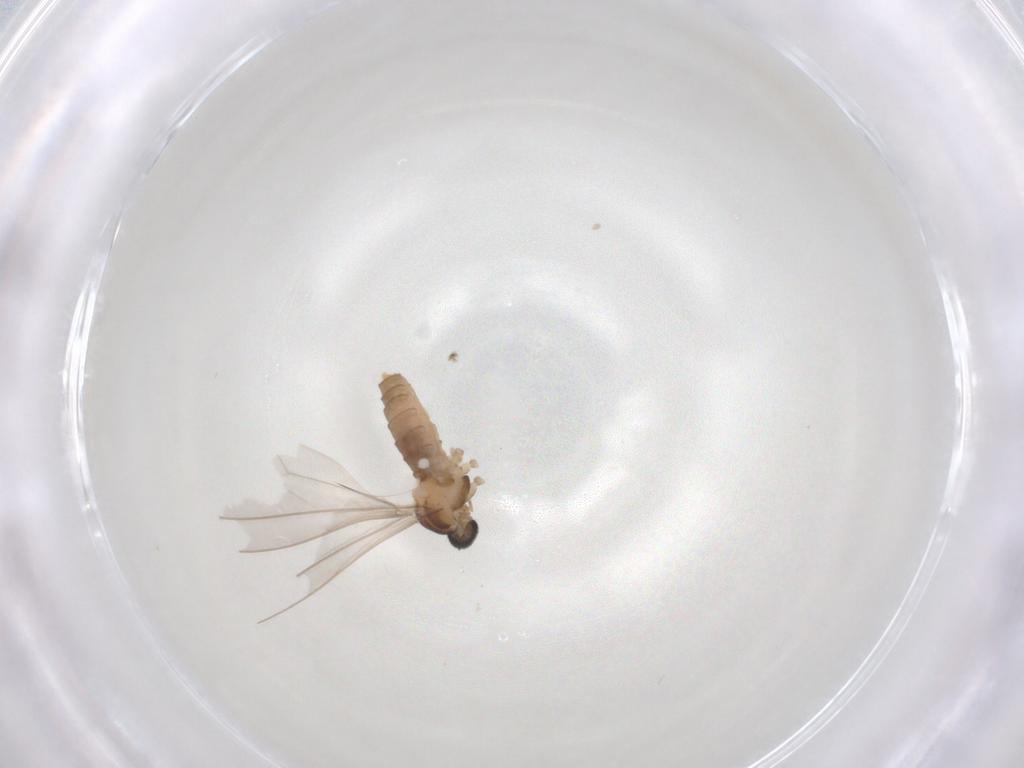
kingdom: Animalia
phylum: Arthropoda
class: Insecta
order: Diptera
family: Cecidomyiidae
